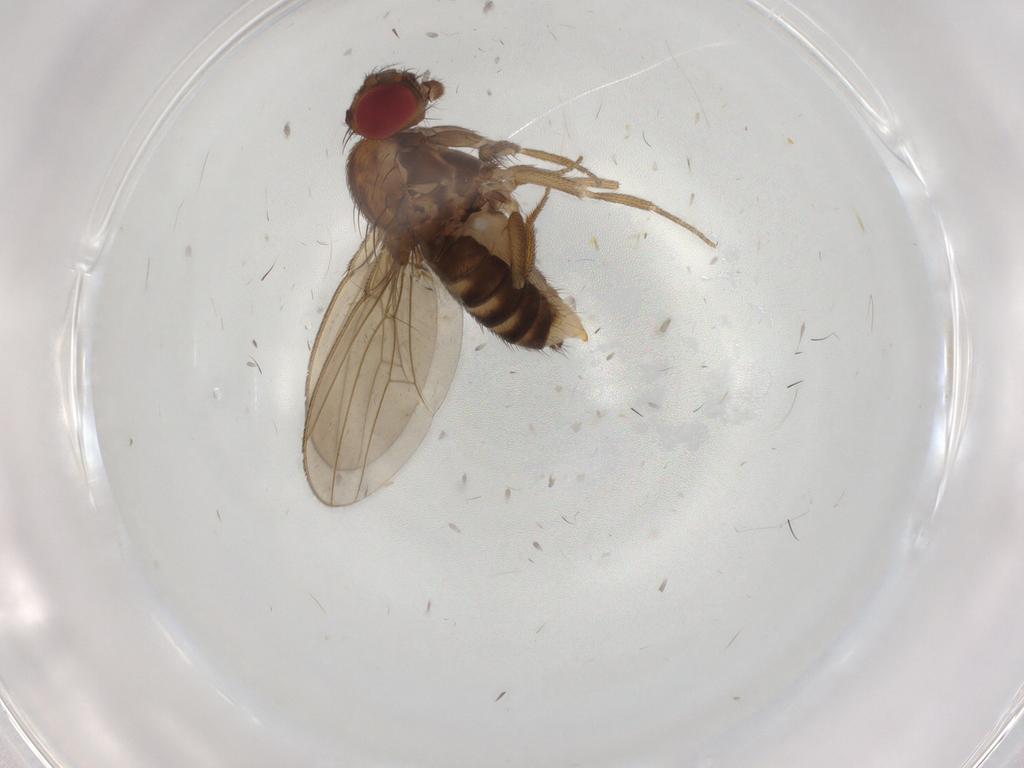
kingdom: Animalia
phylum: Arthropoda
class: Insecta
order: Diptera
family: Drosophilidae
